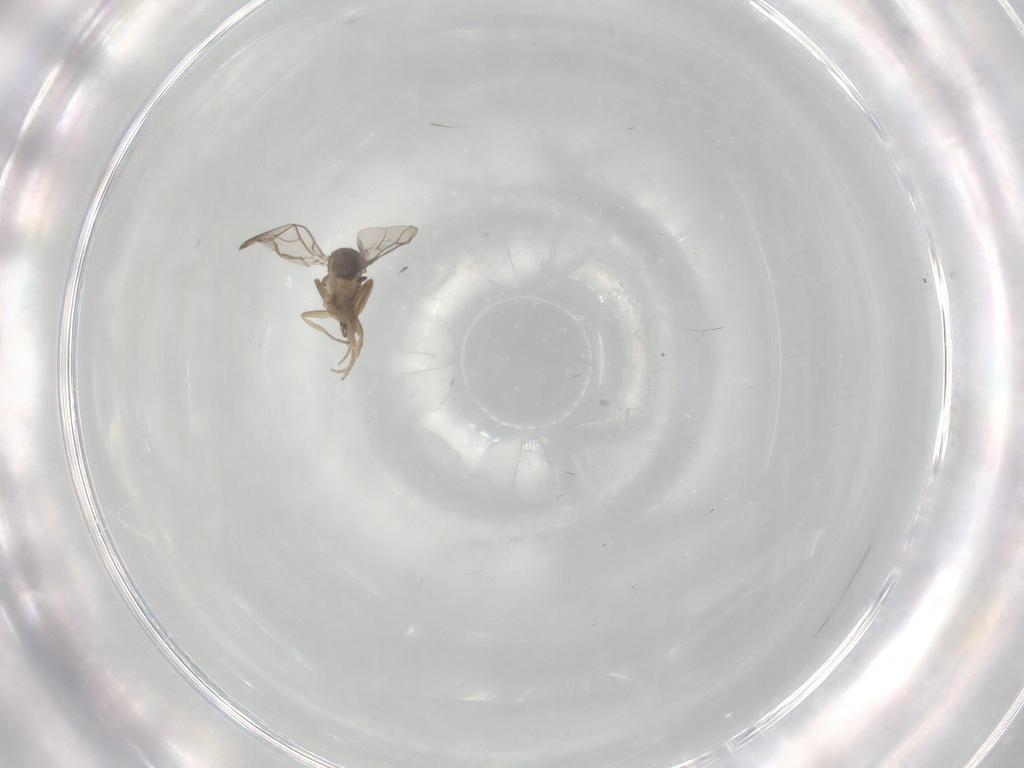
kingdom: Animalia
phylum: Arthropoda
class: Insecta
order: Diptera
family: Phoridae
